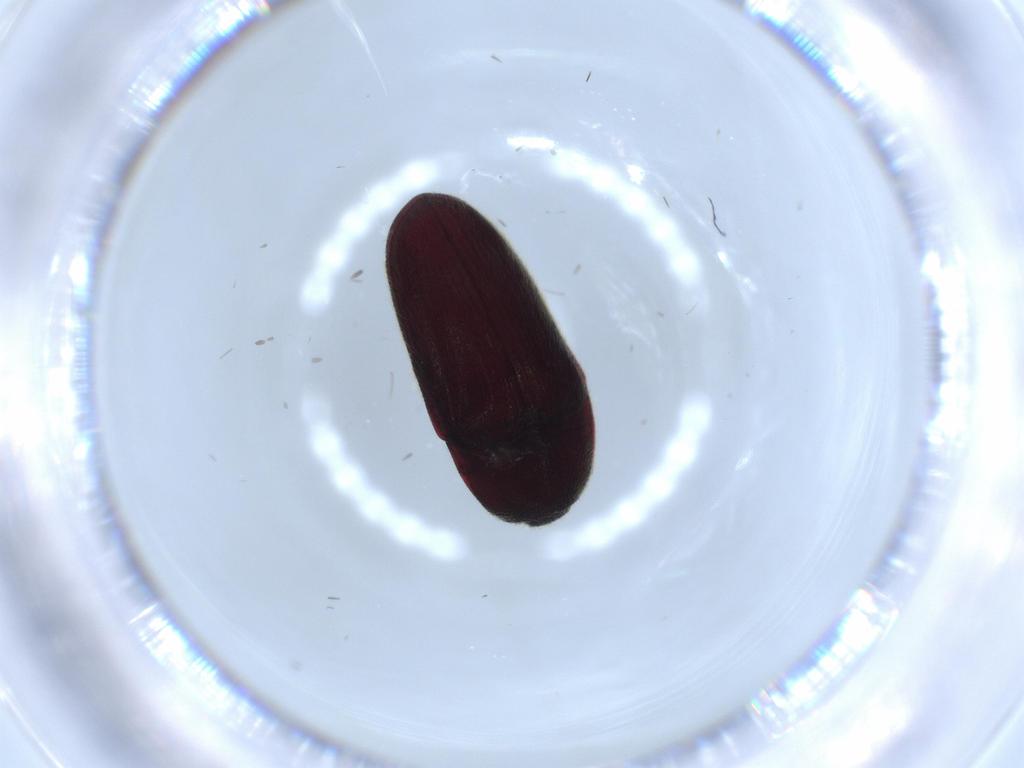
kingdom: Animalia
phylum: Arthropoda
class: Insecta
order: Coleoptera
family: Throscidae
